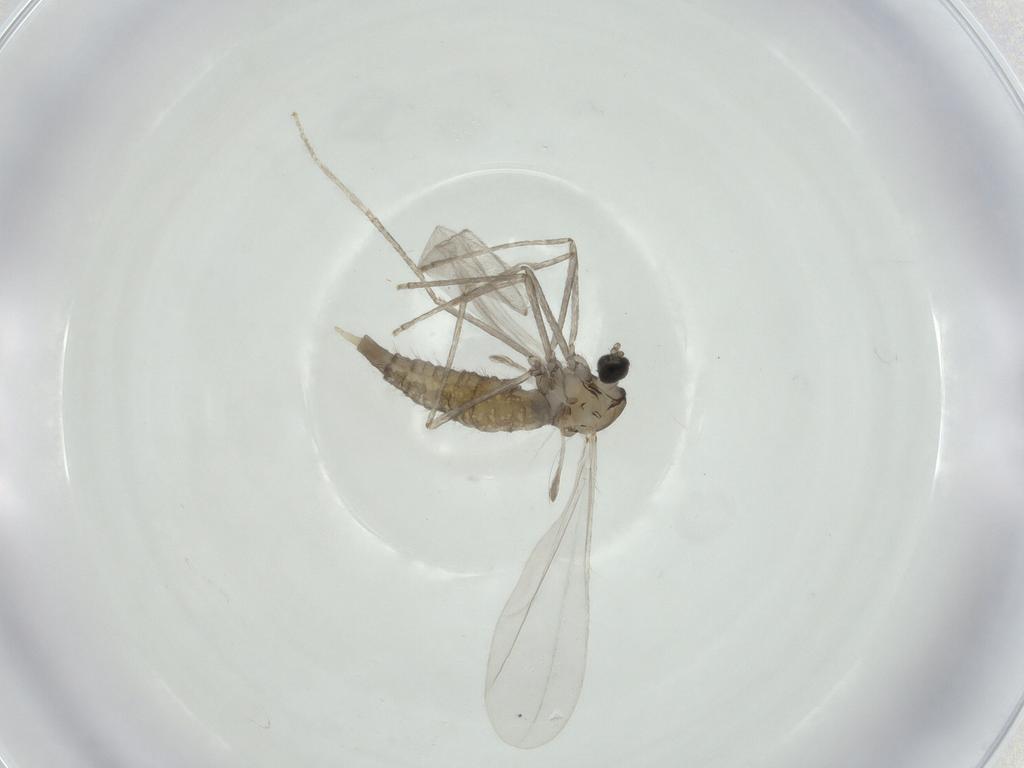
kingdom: Animalia
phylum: Arthropoda
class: Insecta
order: Diptera
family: Cecidomyiidae
